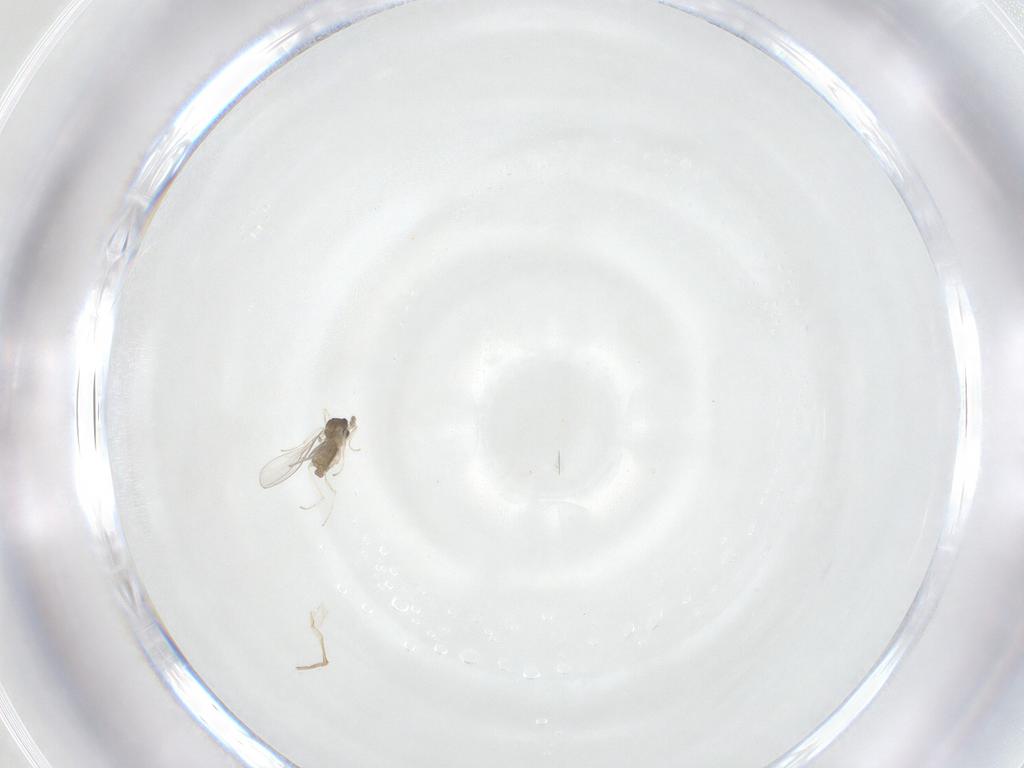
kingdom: Animalia
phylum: Arthropoda
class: Insecta
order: Diptera
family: Cecidomyiidae
